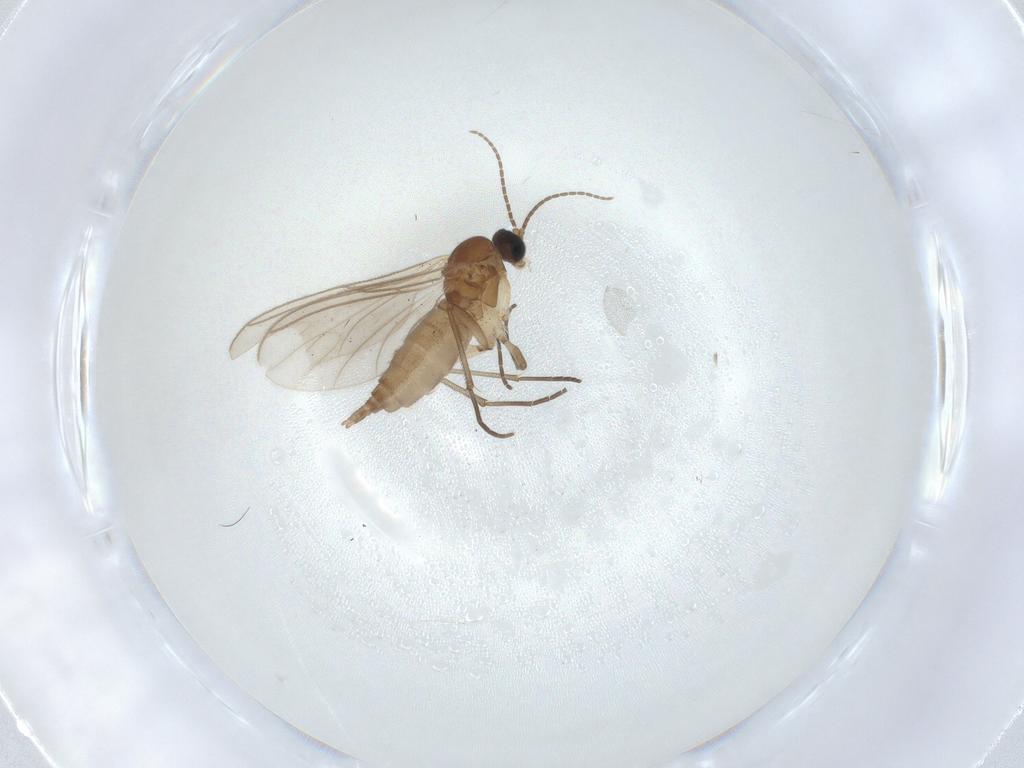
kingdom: Animalia
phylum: Arthropoda
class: Insecta
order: Diptera
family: Sciaridae
